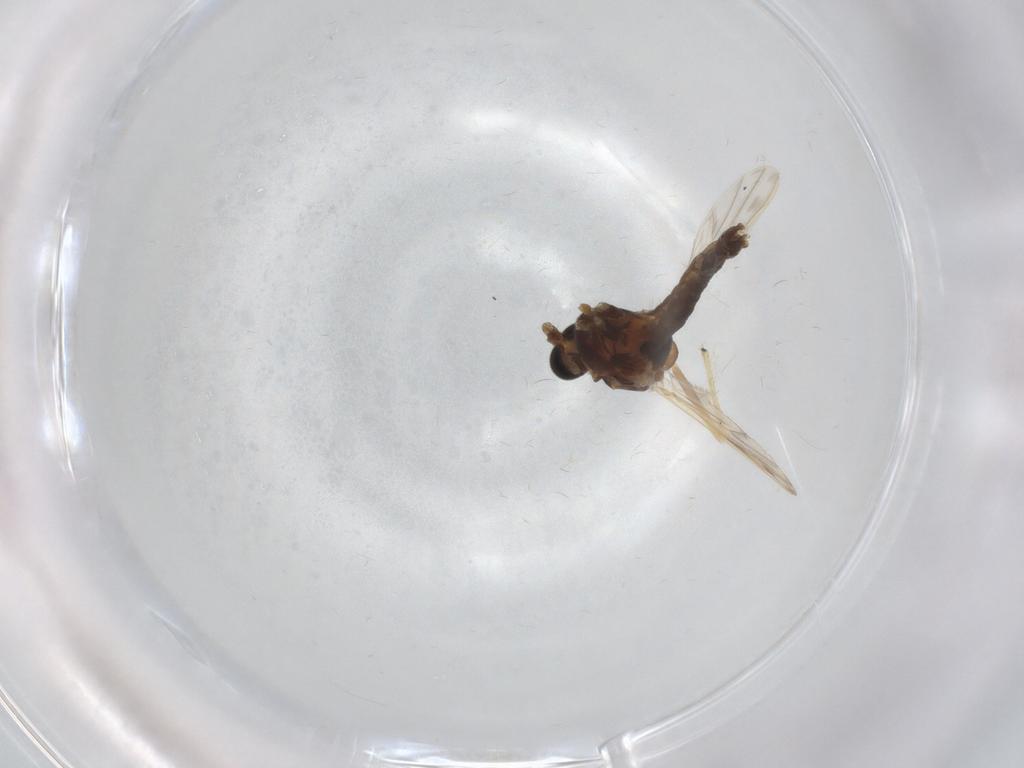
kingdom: Animalia
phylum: Arthropoda
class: Insecta
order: Diptera
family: Chironomidae
